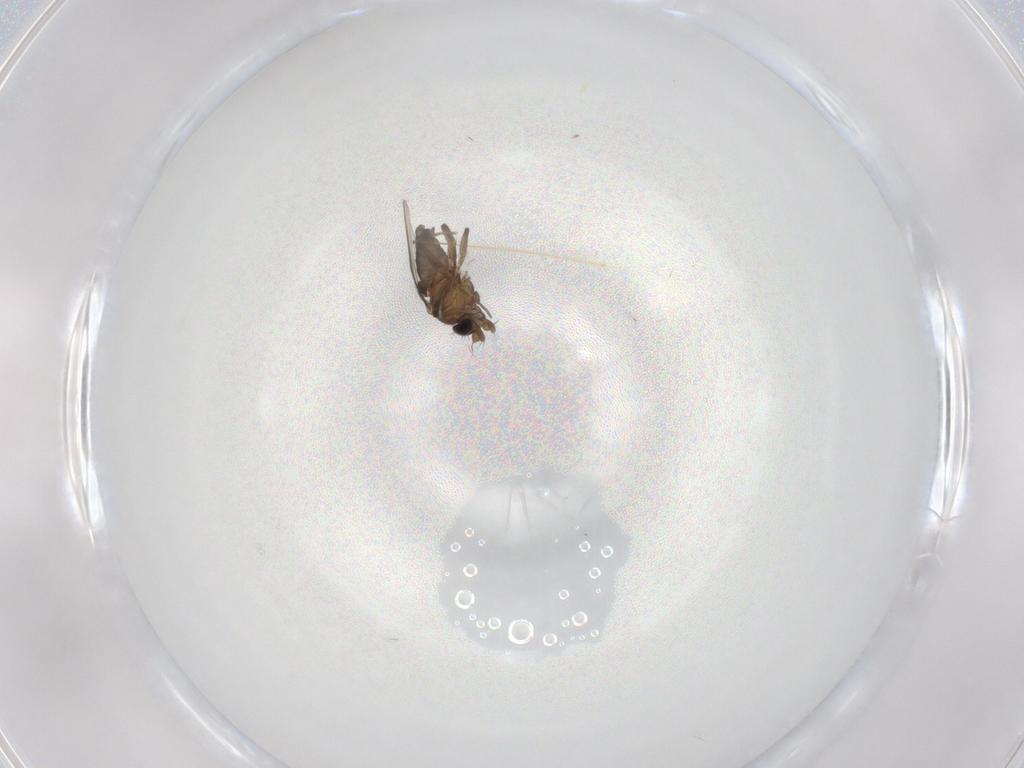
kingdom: Animalia
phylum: Arthropoda
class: Insecta
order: Diptera
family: Phoridae
